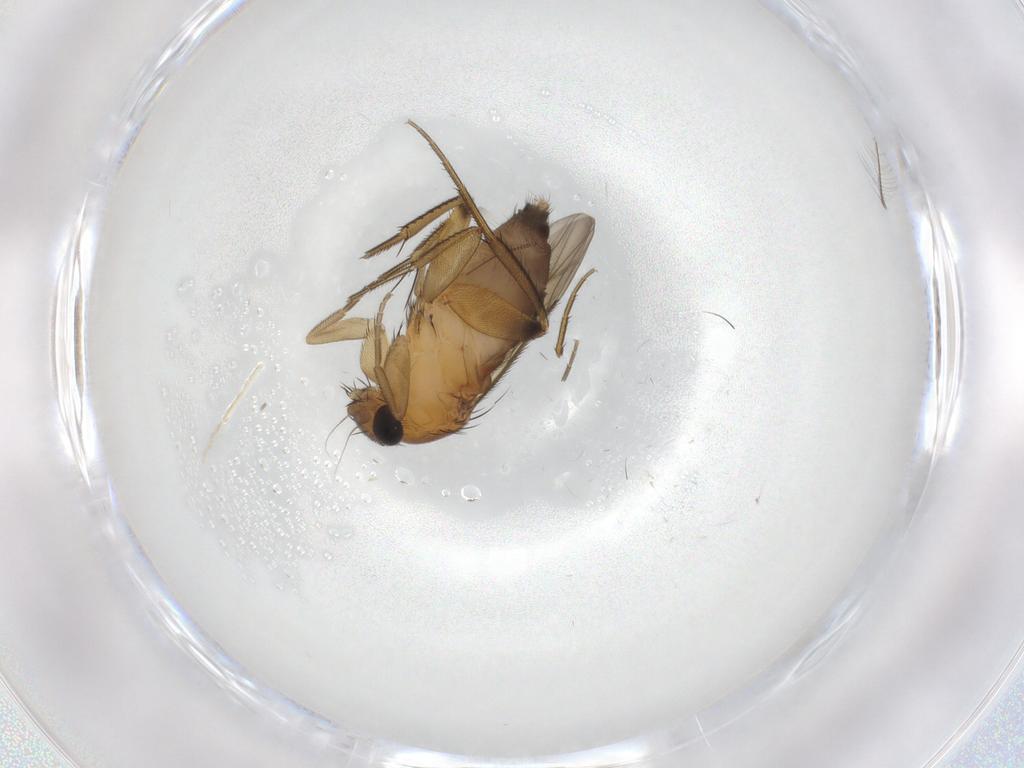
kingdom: Animalia
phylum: Arthropoda
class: Insecta
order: Diptera
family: Phoridae
